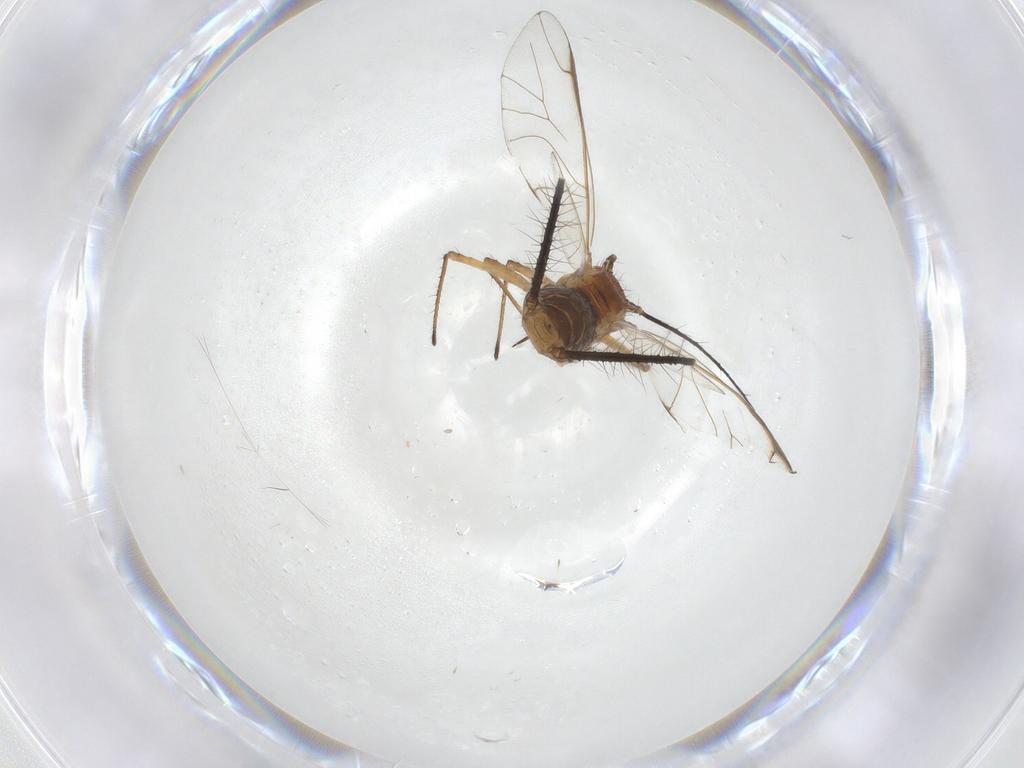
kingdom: Animalia
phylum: Arthropoda
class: Insecta
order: Hemiptera
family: Aphididae
